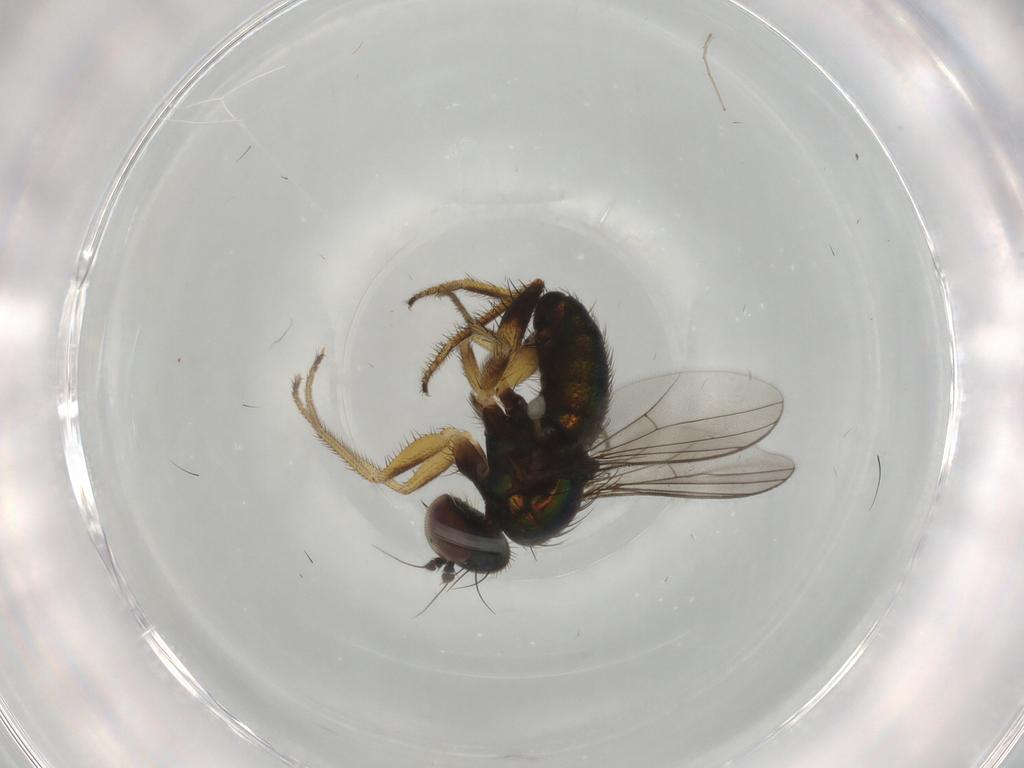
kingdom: Animalia
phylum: Arthropoda
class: Insecta
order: Diptera
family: Dolichopodidae
